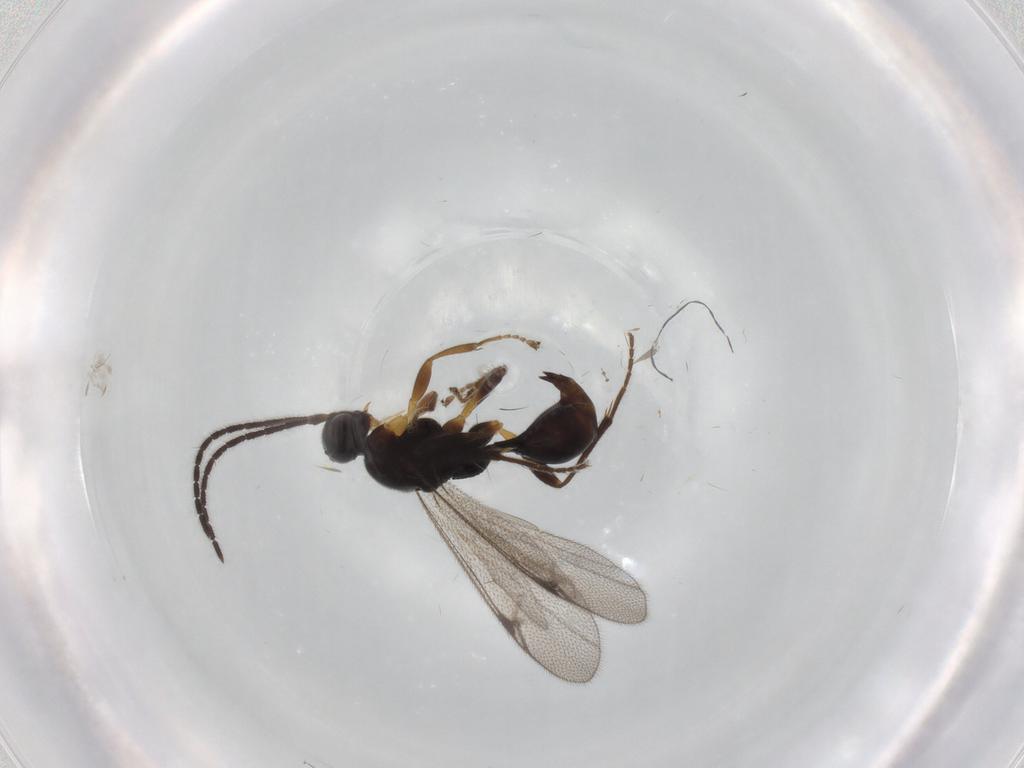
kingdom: Animalia
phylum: Arthropoda
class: Insecta
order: Hymenoptera
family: Proctotrupidae
